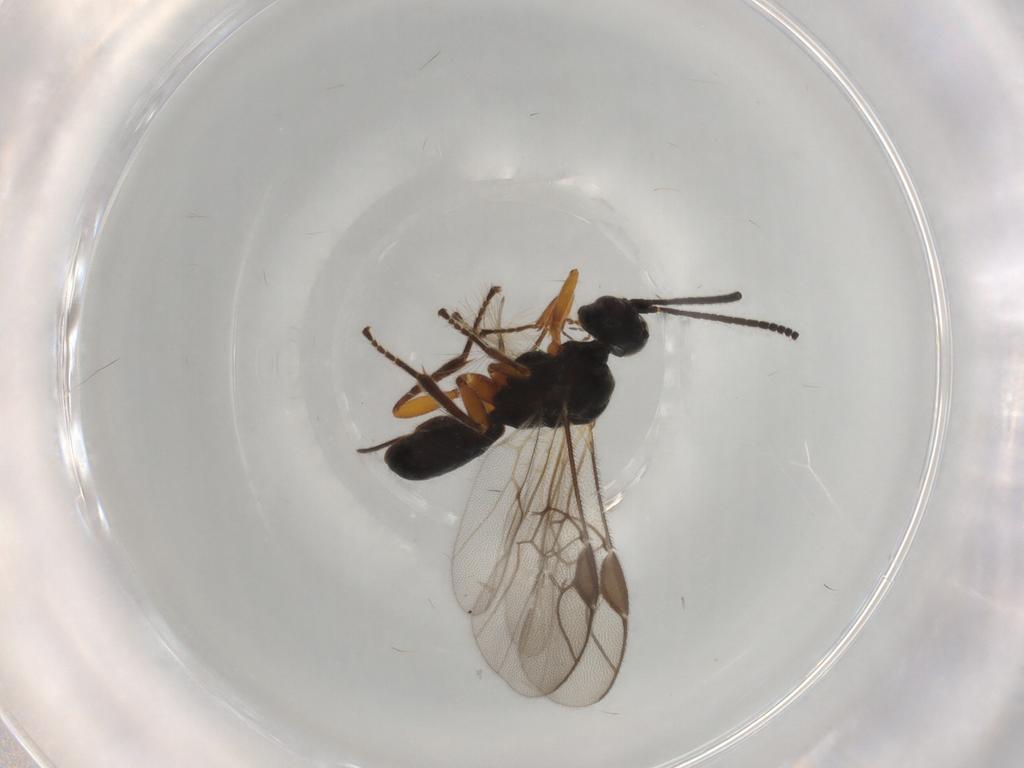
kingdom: Animalia
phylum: Arthropoda
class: Insecta
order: Hymenoptera
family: Braconidae
